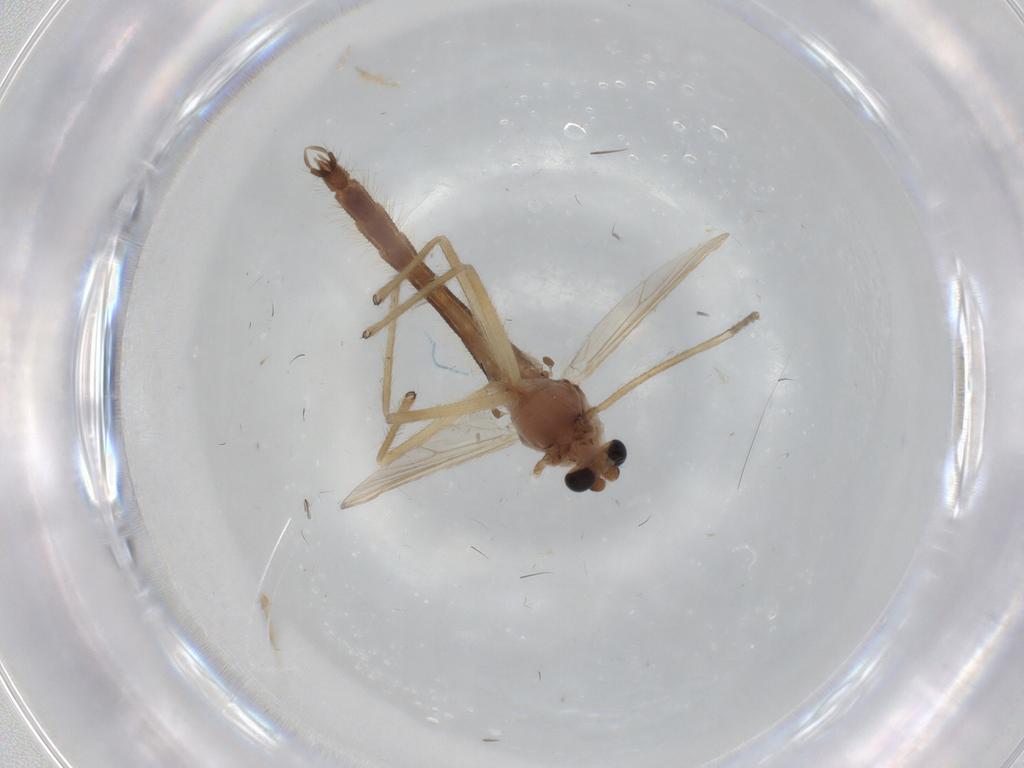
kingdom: Animalia
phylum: Arthropoda
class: Insecta
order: Diptera
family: Chironomidae
